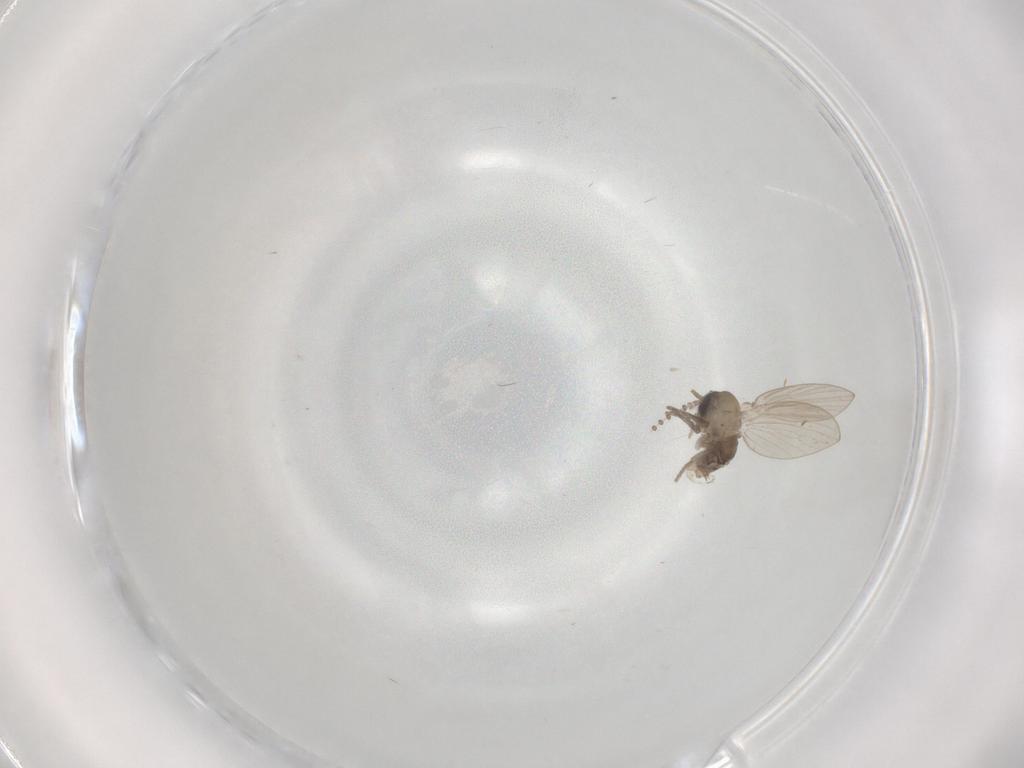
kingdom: Animalia
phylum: Arthropoda
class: Insecta
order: Diptera
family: Psychodidae
